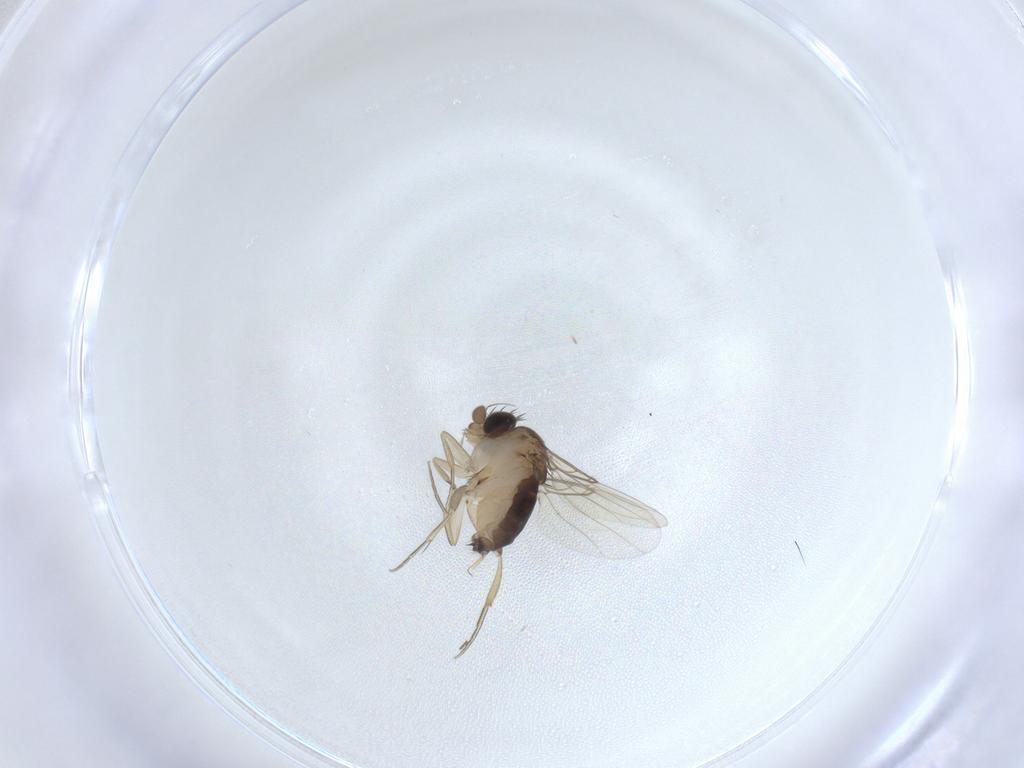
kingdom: Animalia
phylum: Arthropoda
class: Insecta
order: Diptera
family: Phoridae
